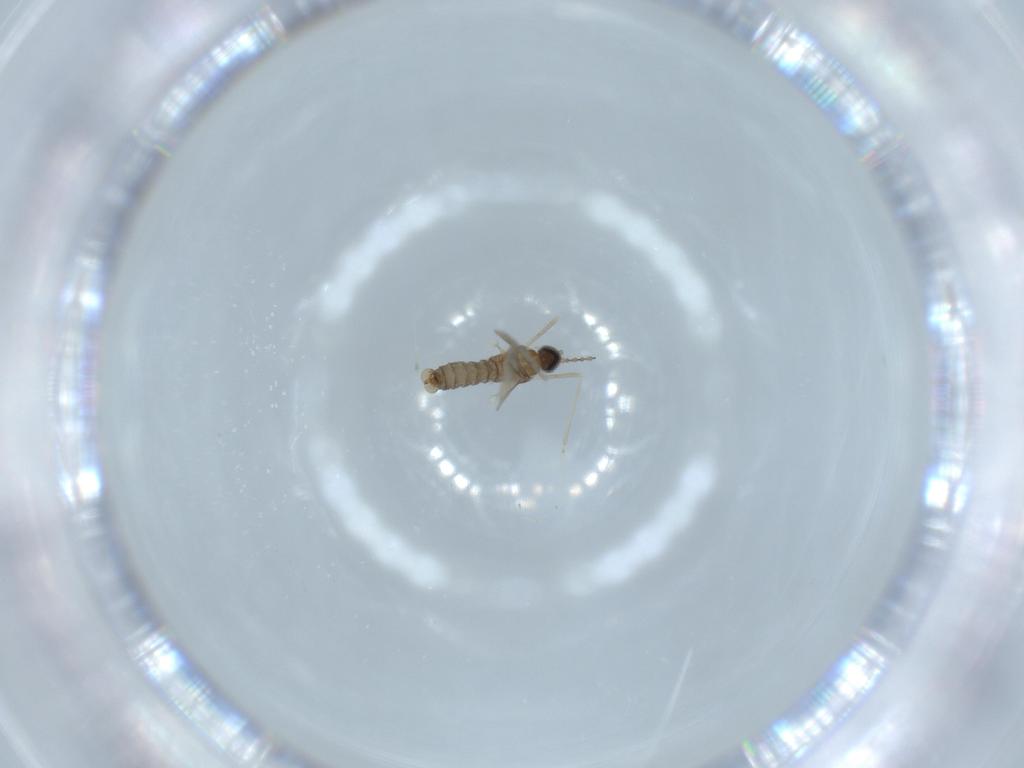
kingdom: Animalia
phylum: Arthropoda
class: Insecta
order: Diptera
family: Cecidomyiidae
